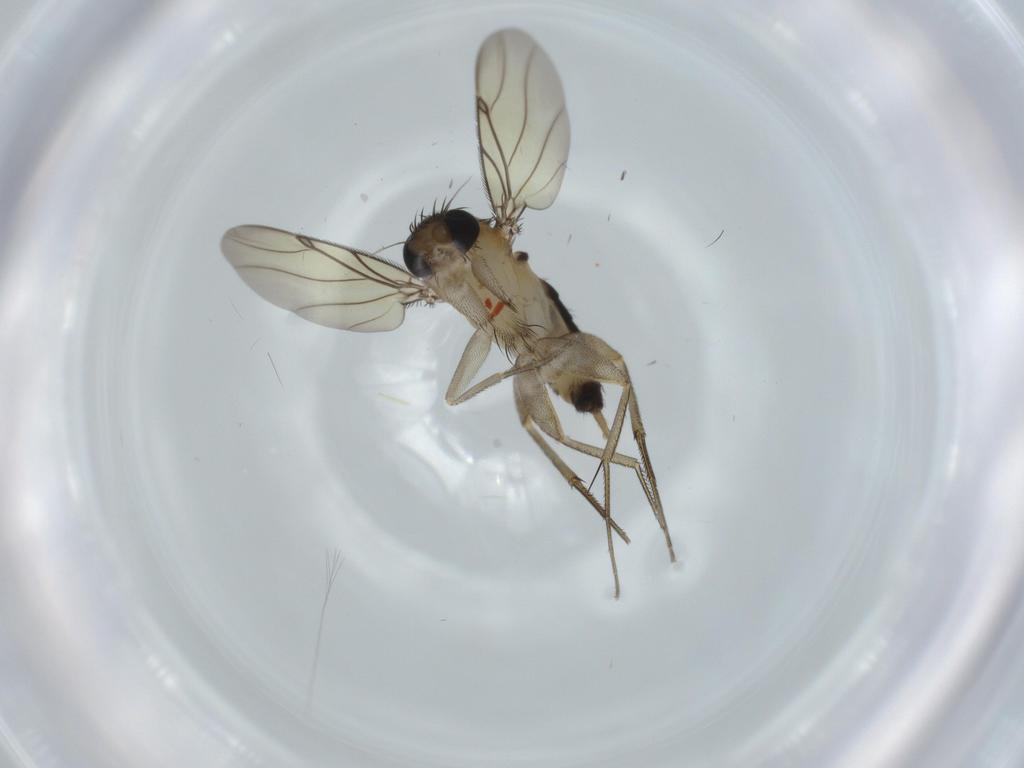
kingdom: Animalia
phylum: Arthropoda
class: Insecta
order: Diptera
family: Phoridae
